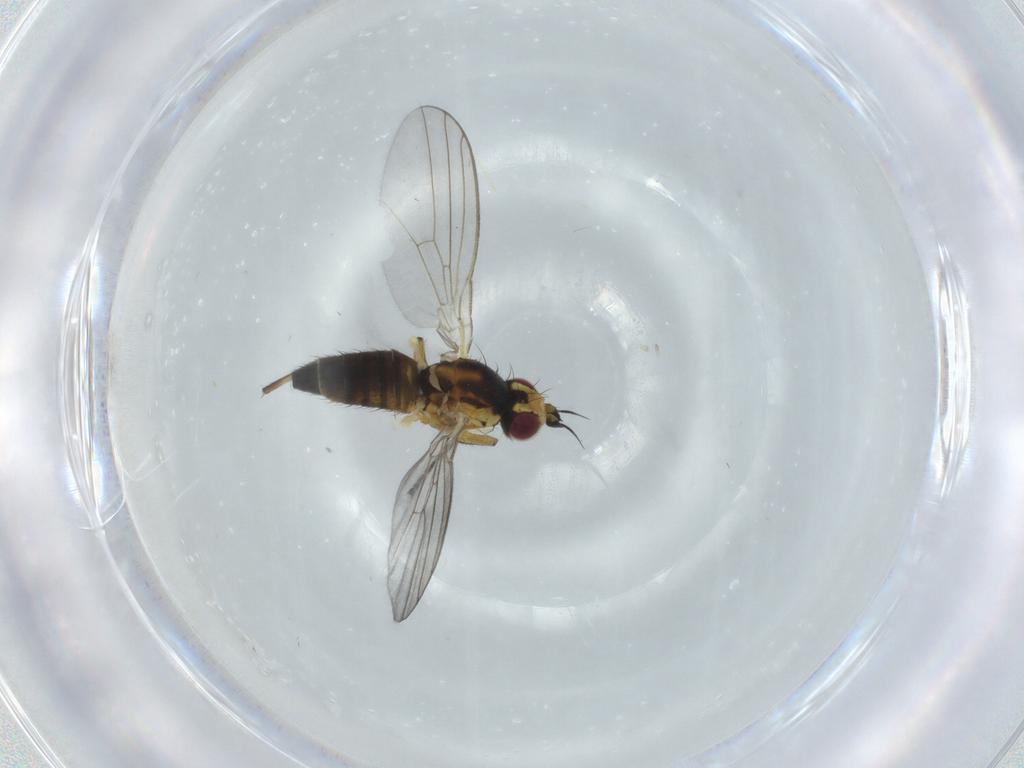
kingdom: Animalia
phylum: Arthropoda
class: Insecta
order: Diptera
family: Agromyzidae
